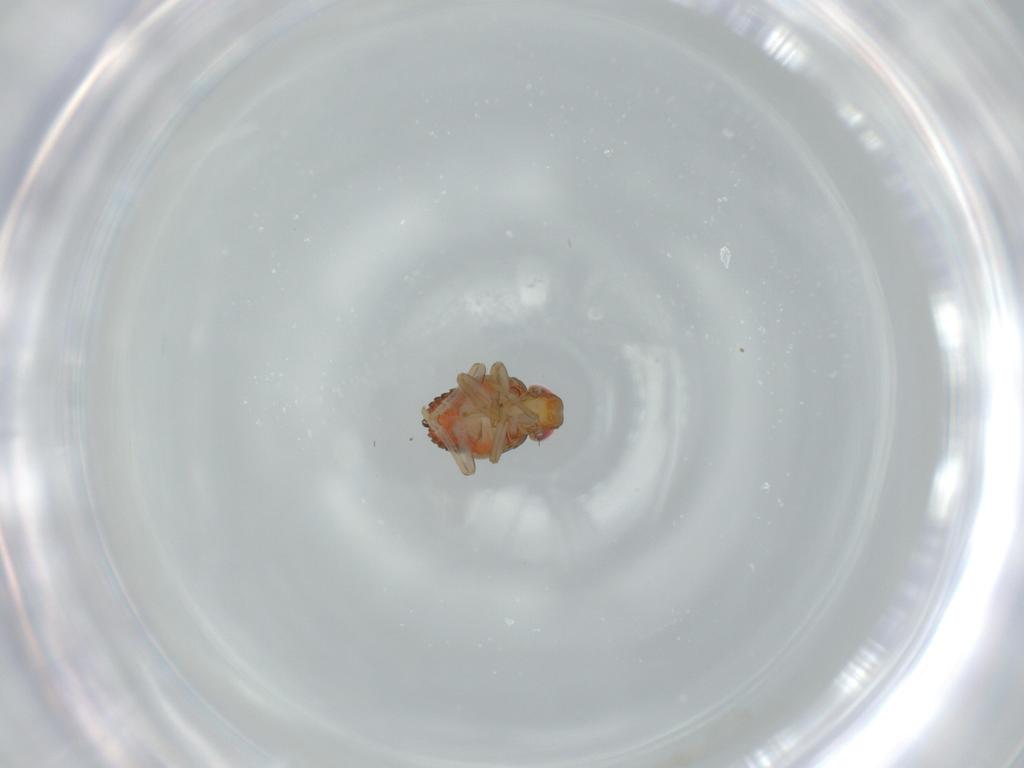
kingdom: Animalia
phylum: Arthropoda
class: Insecta
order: Hemiptera
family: Issidae
